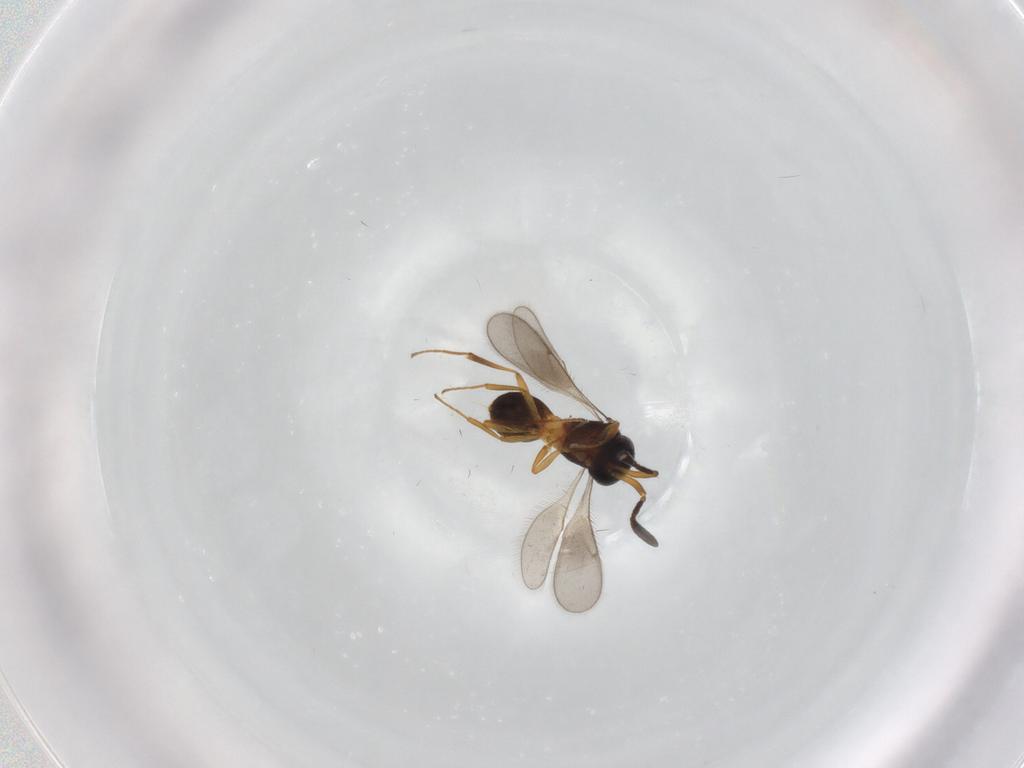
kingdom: Animalia
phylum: Arthropoda
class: Insecta
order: Hymenoptera
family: Scelionidae
